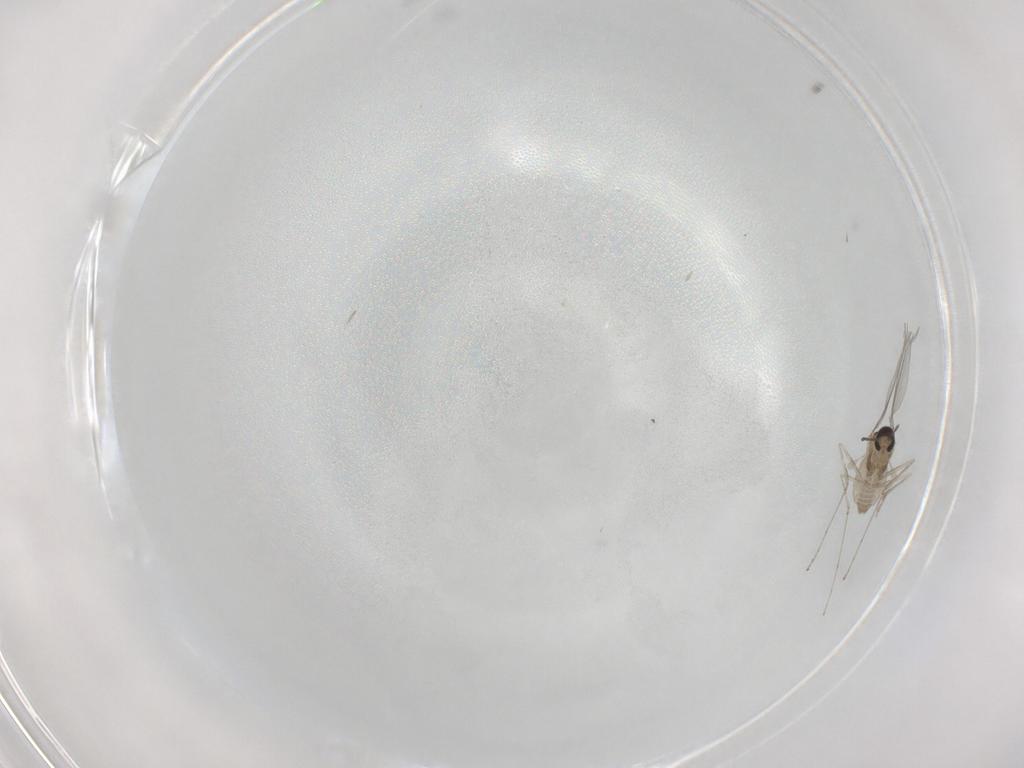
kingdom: Animalia
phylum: Arthropoda
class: Insecta
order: Diptera
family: Cecidomyiidae
